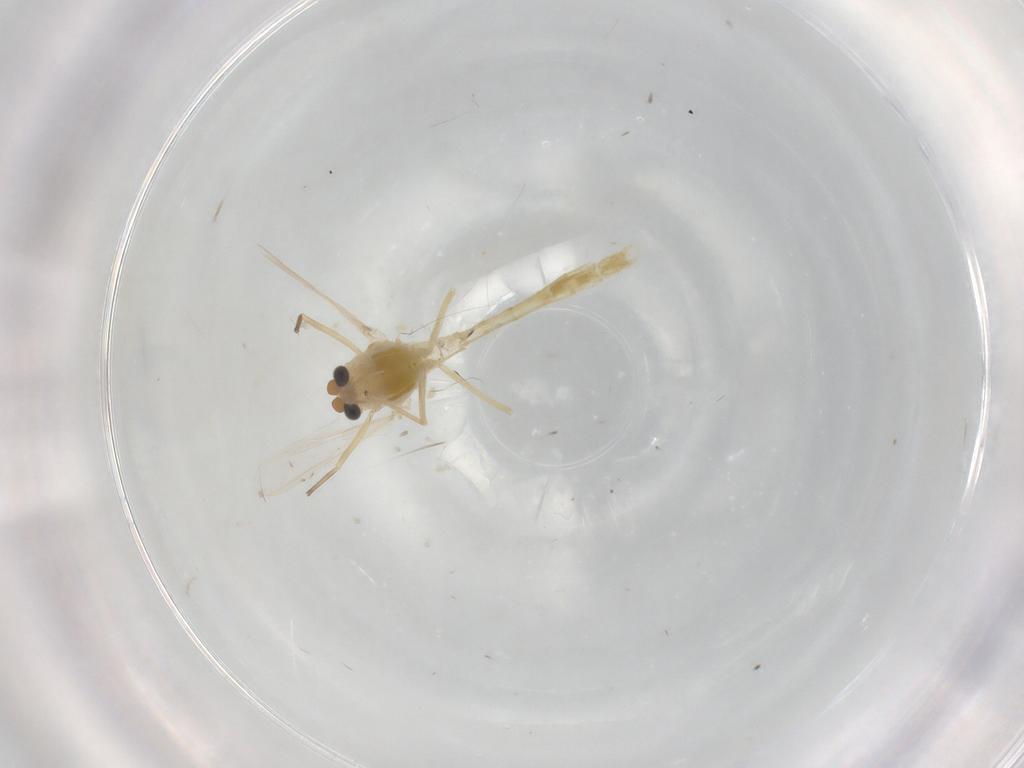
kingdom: Animalia
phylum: Arthropoda
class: Insecta
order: Diptera
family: Chironomidae
